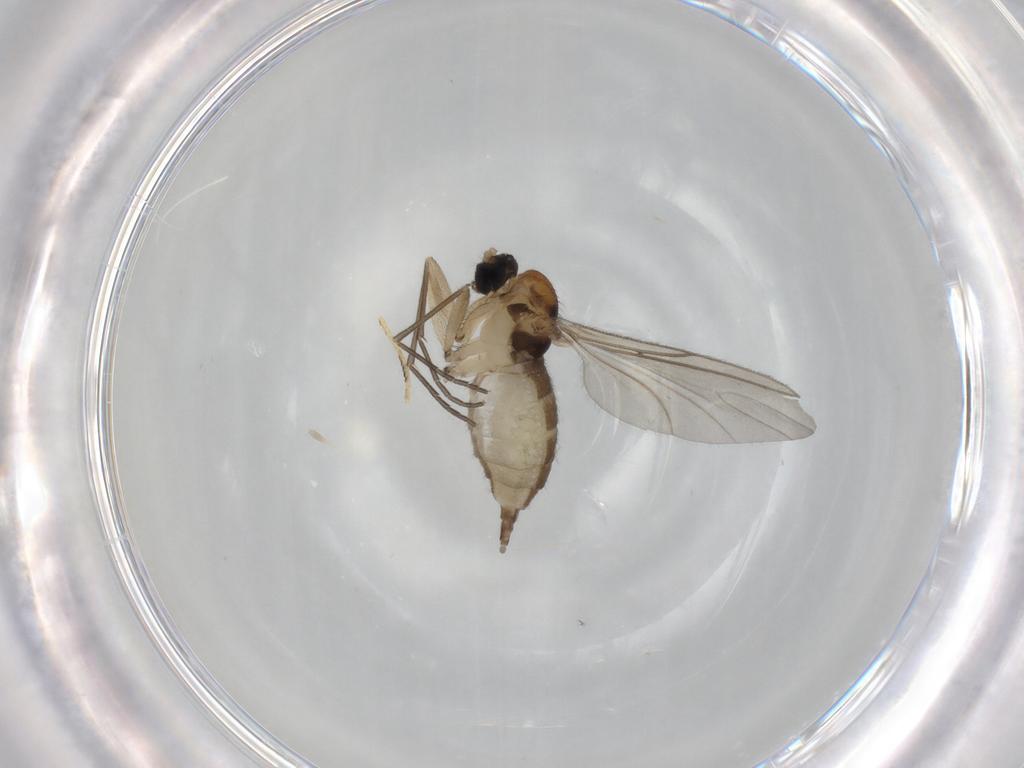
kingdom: Animalia
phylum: Arthropoda
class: Insecta
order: Diptera
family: Sciaridae
